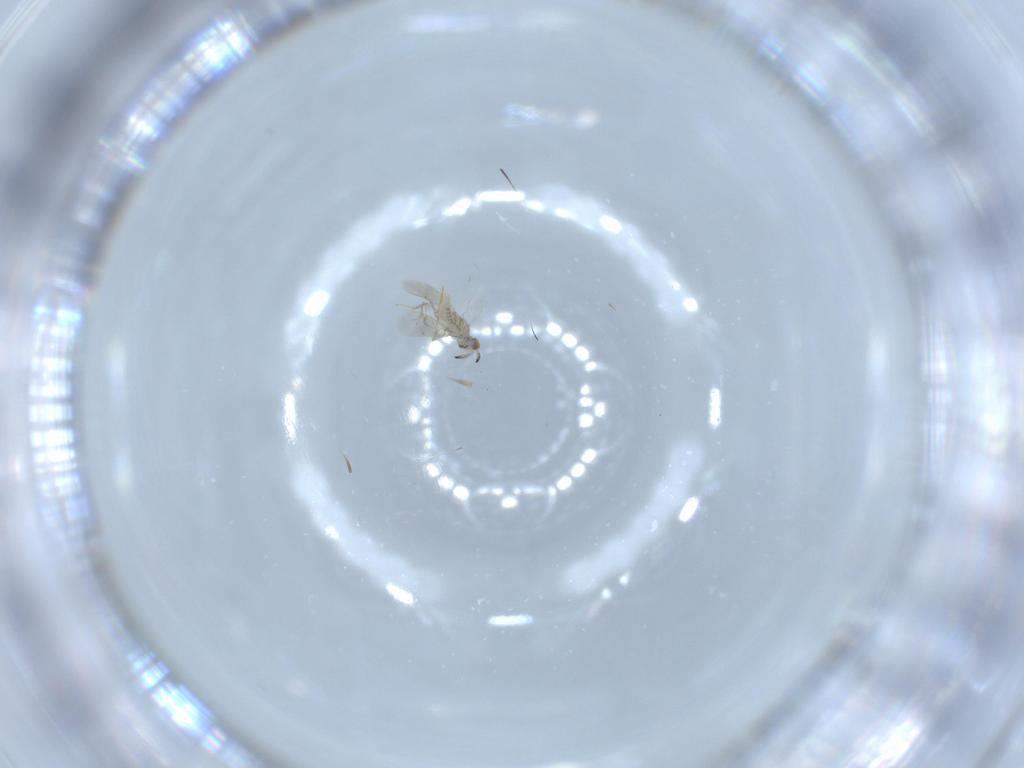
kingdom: Animalia
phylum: Arthropoda
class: Insecta
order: Hymenoptera
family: Aphelinidae
